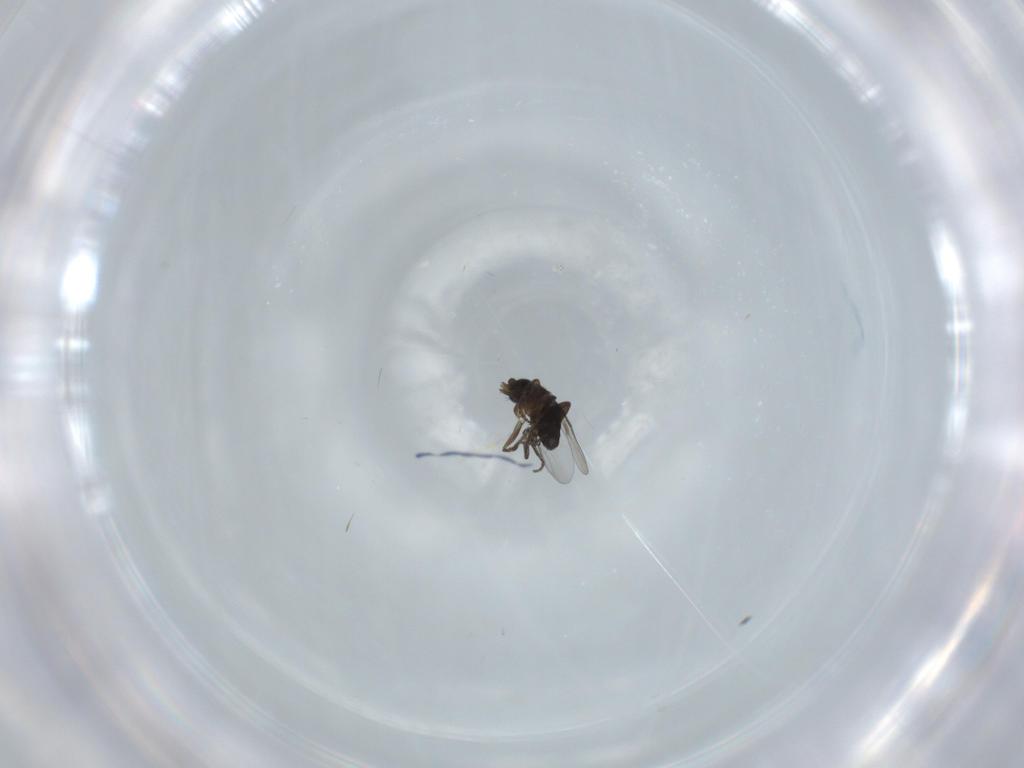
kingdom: Animalia
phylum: Arthropoda
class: Insecta
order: Diptera
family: Phoridae
